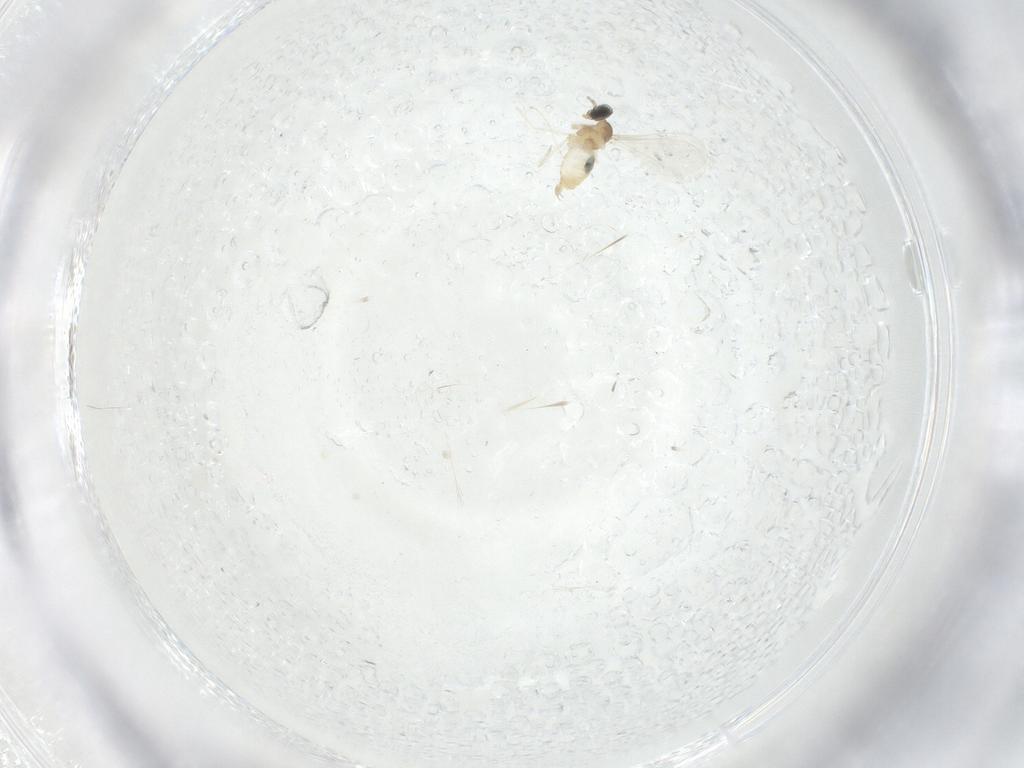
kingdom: Animalia
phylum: Arthropoda
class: Insecta
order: Diptera
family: Cecidomyiidae
